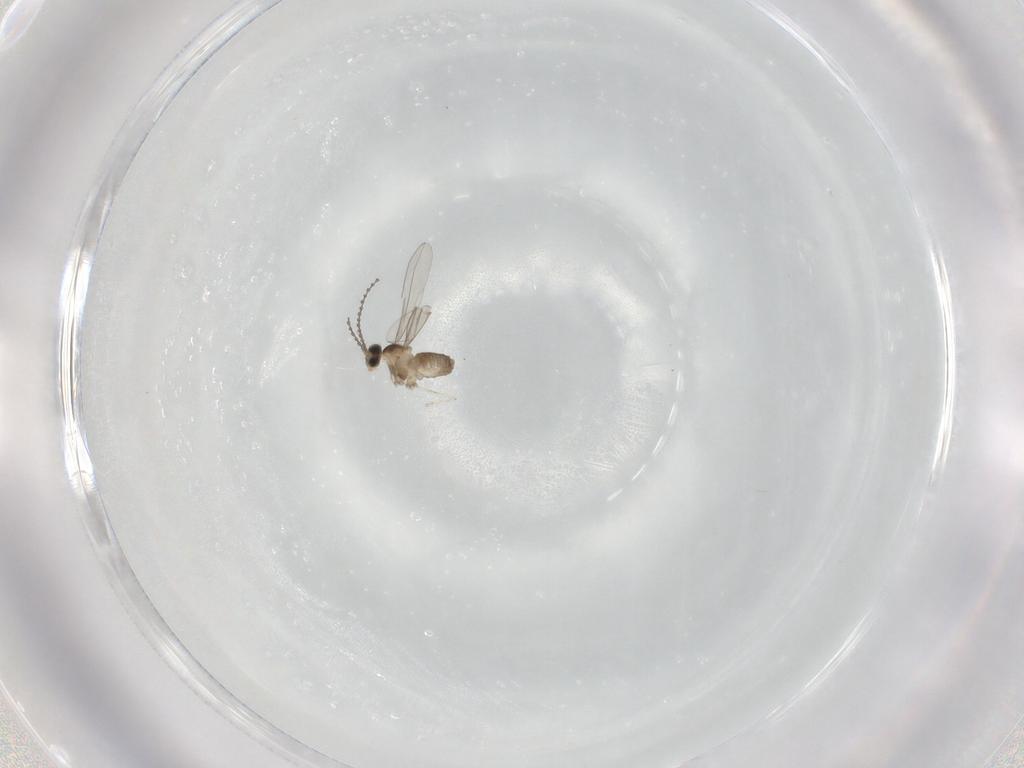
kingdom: Animalia
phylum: Arthropoda
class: Insecta
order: Diptera
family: Cecidomyiidae
